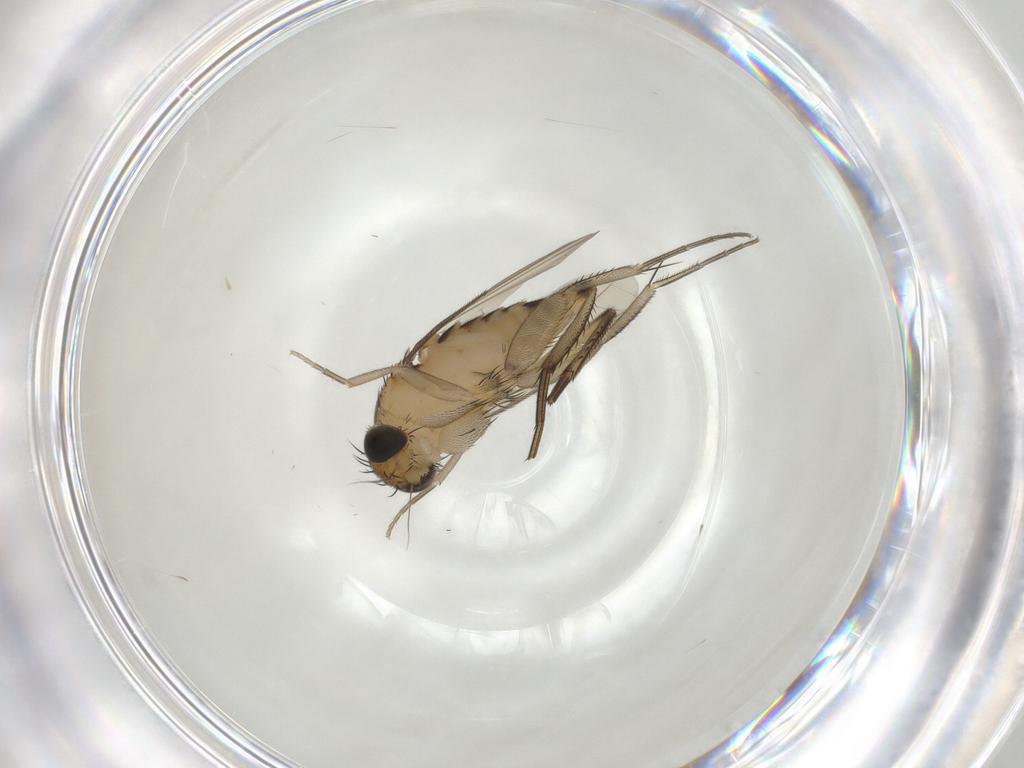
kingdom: Animalia
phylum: Arthropoda
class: Insecta
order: Diptera
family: Phoridae
